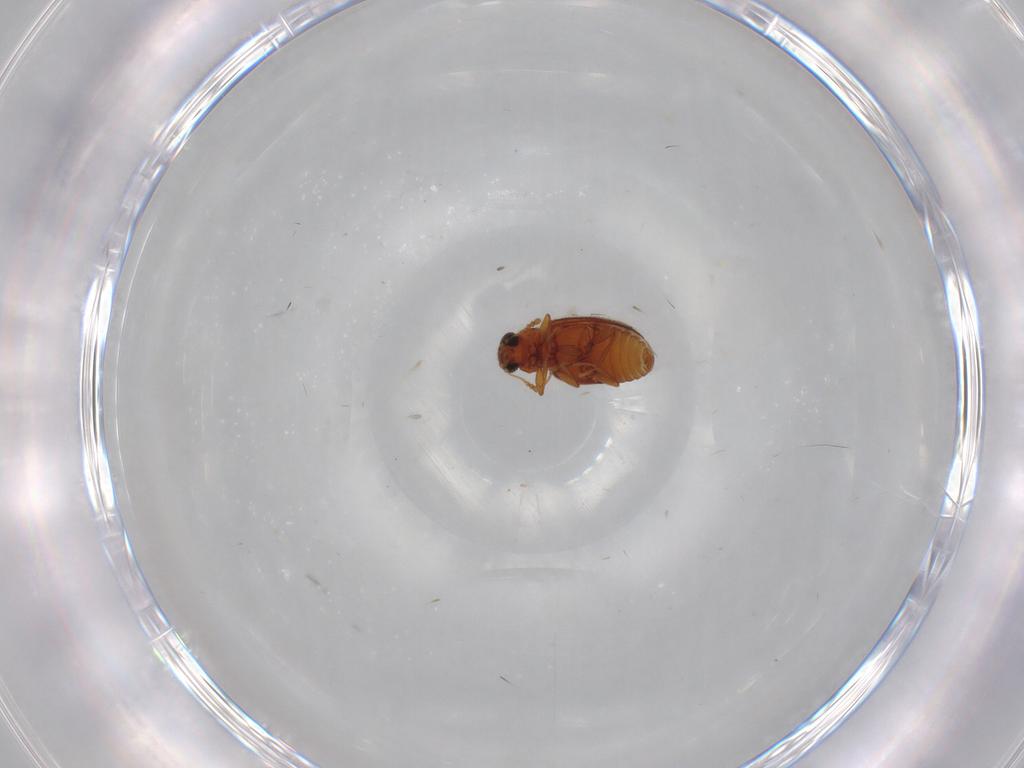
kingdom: Animalia
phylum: Arthropoda
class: Insecta
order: Coleoptera
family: Latridiidae
